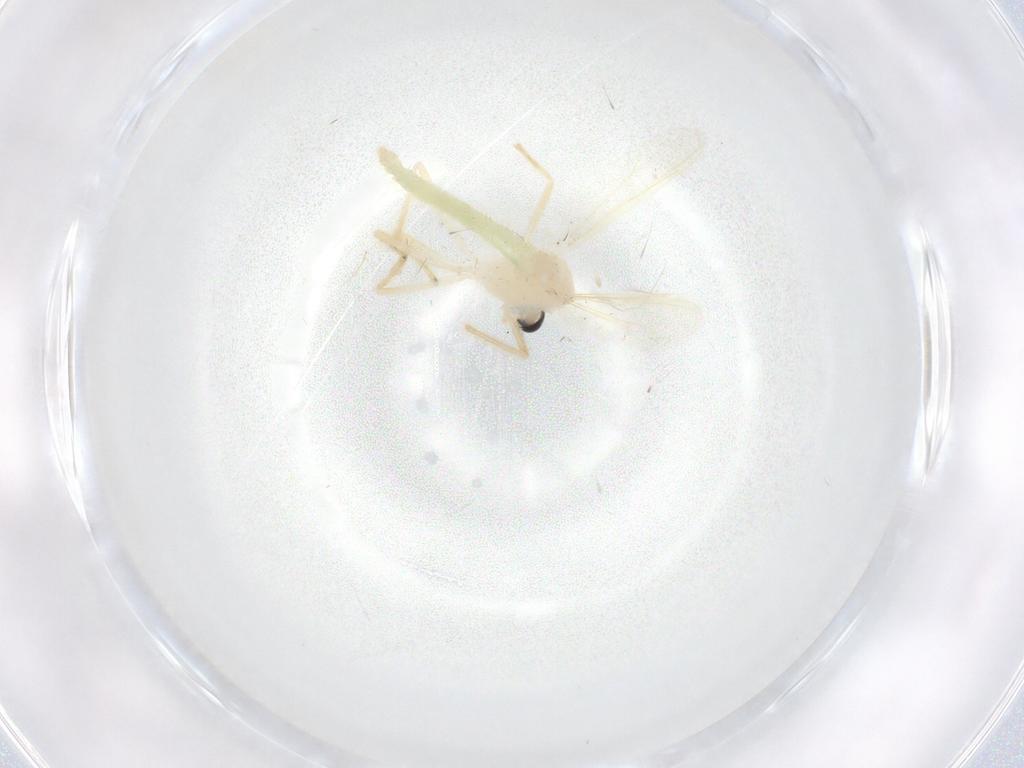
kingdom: Animalia
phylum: Arthropoda
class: Insecta
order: Diptera
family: Chironomidae
